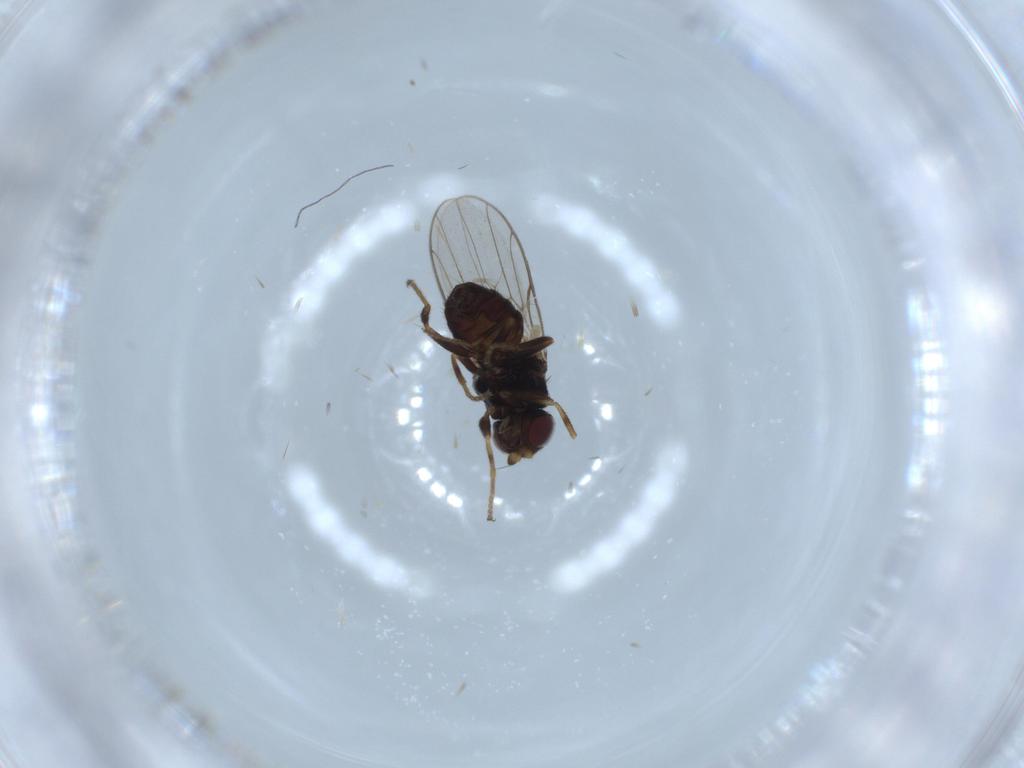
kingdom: Animalia
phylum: Arthropoda
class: Insecta
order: Diptera
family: Chloropidae
